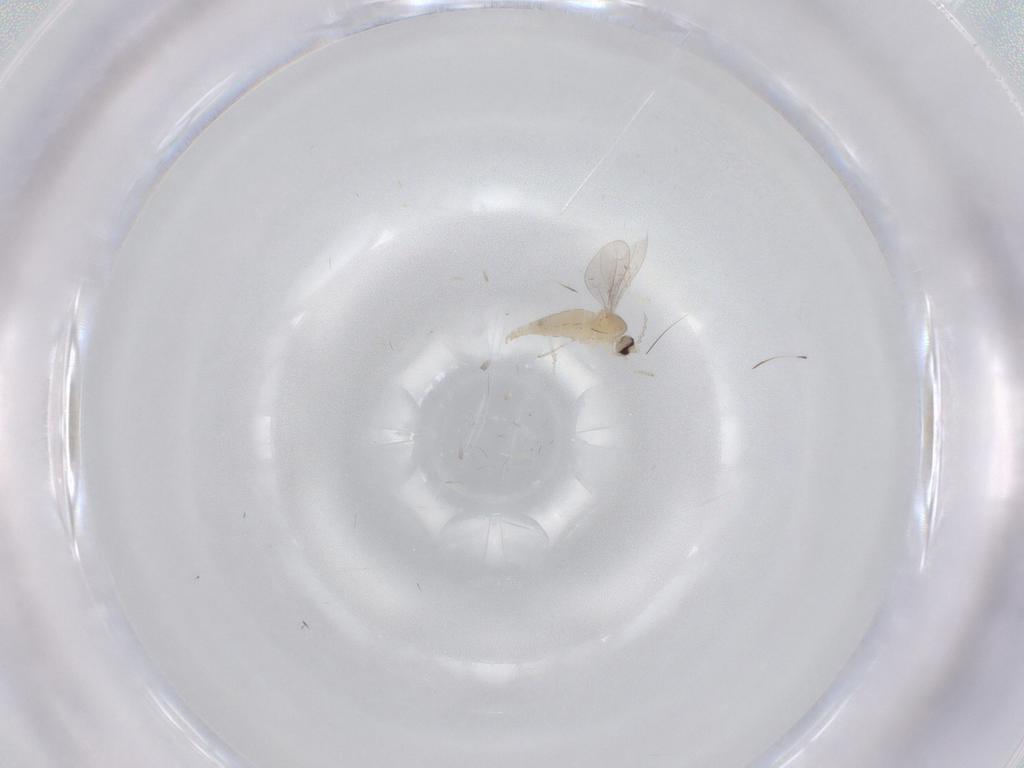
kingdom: Animalia
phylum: Arthropoda
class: Insecta
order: Diptera
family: Cecidomyiidae
